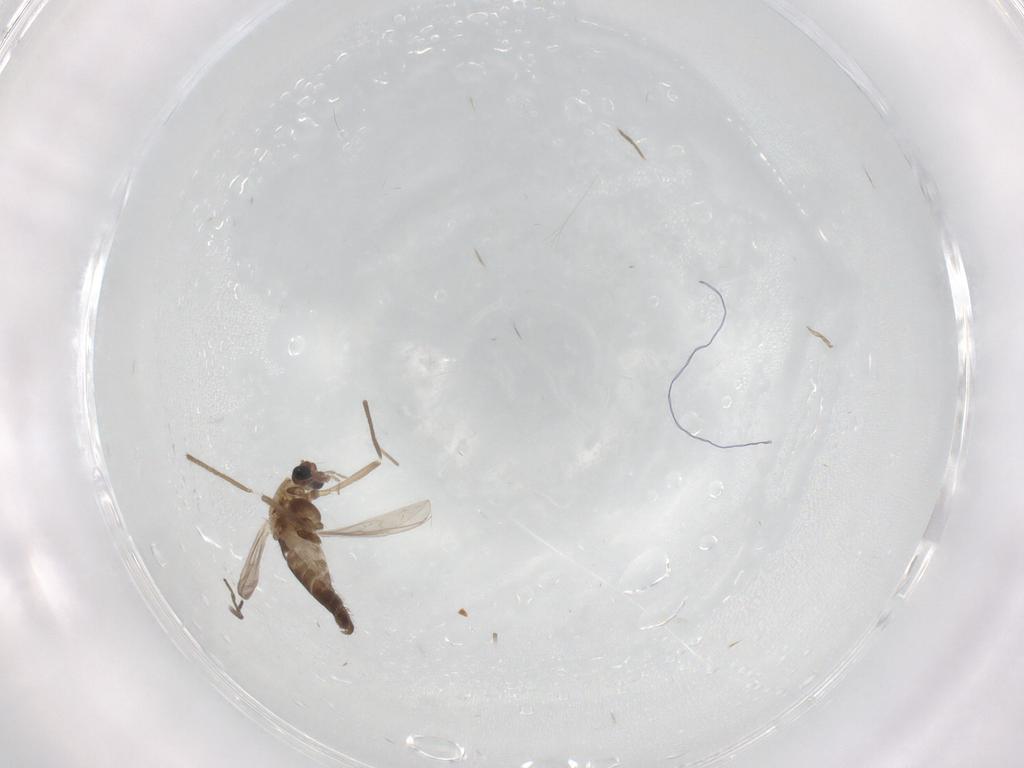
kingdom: Animalia
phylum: Arthropoda
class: Insecta
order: Diptera
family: Chironomidae
